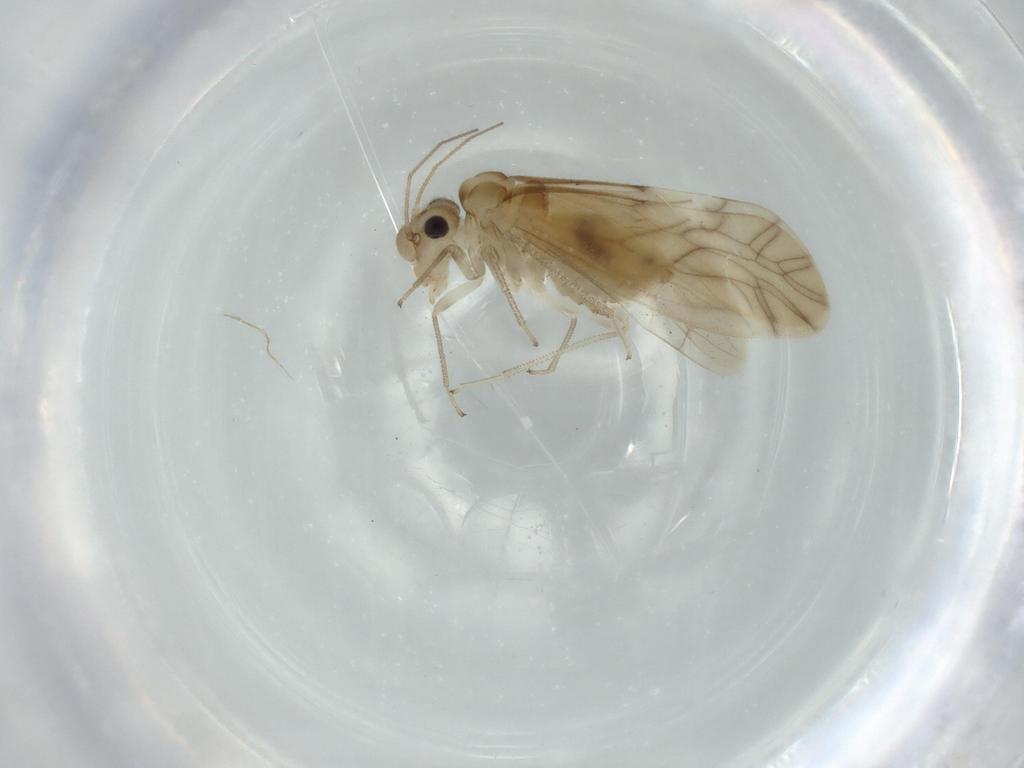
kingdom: Animalia
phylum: Arthropoda
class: Insecta
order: Psocodea
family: Caeciliusidae
